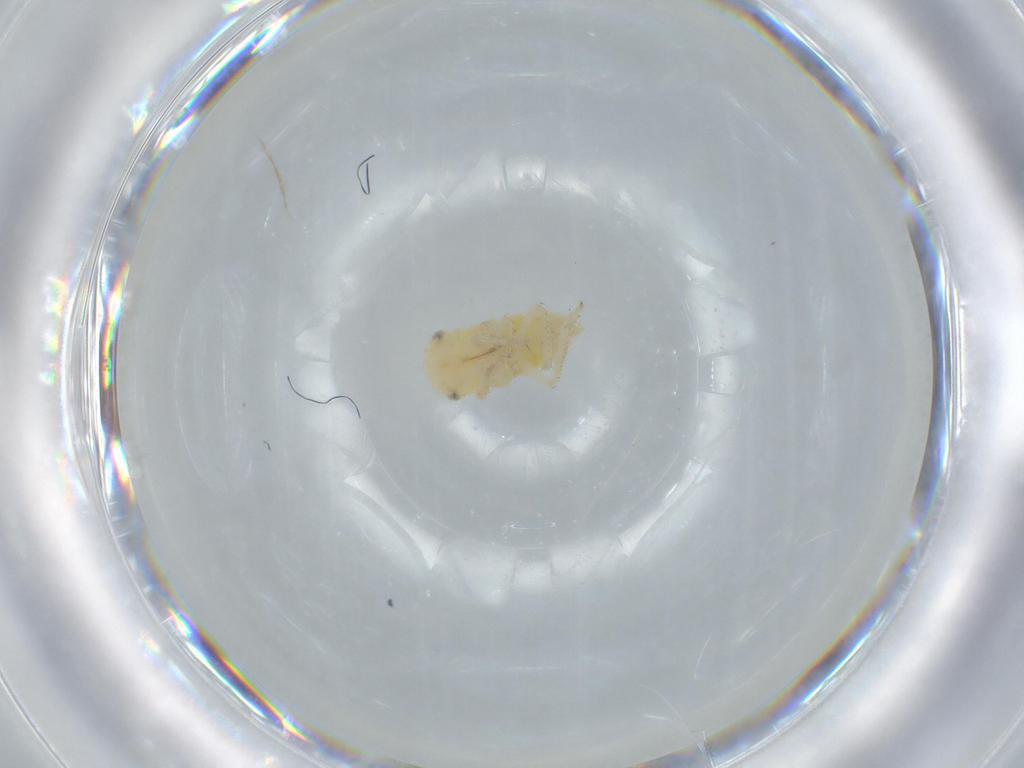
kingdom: Animalia
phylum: Arthropoda
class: Insecta
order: Hemiptera
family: Cicadellidae
